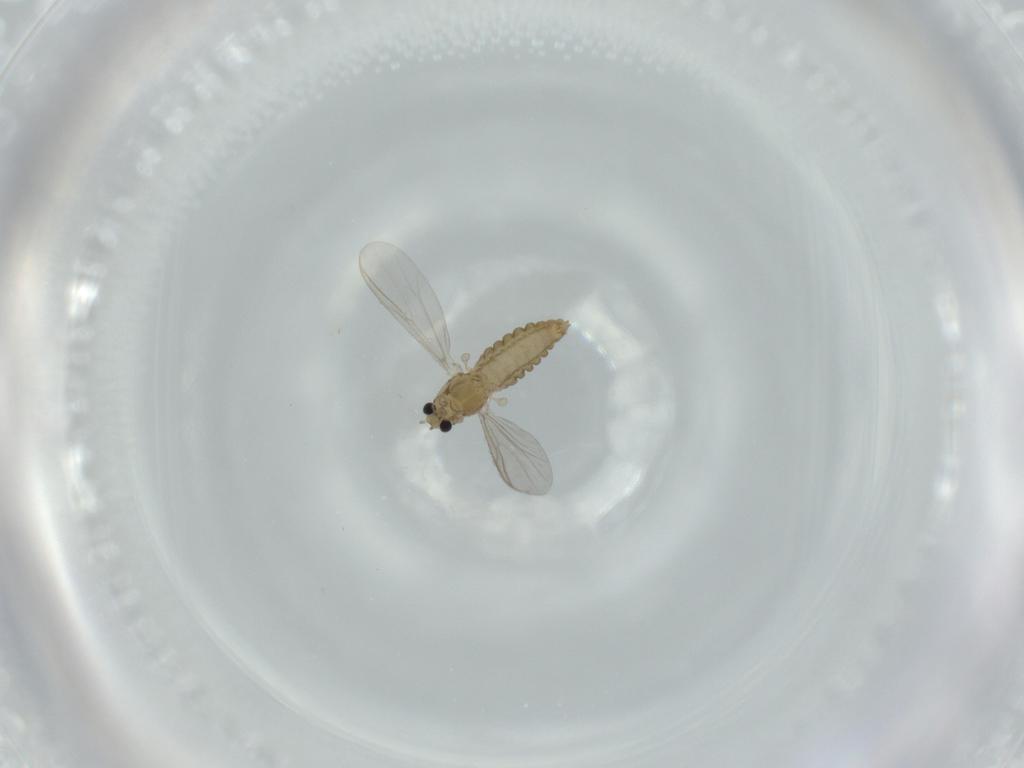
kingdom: Animalia
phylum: Arthropoda
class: Insecta
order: Diptera
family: Chironomidae
